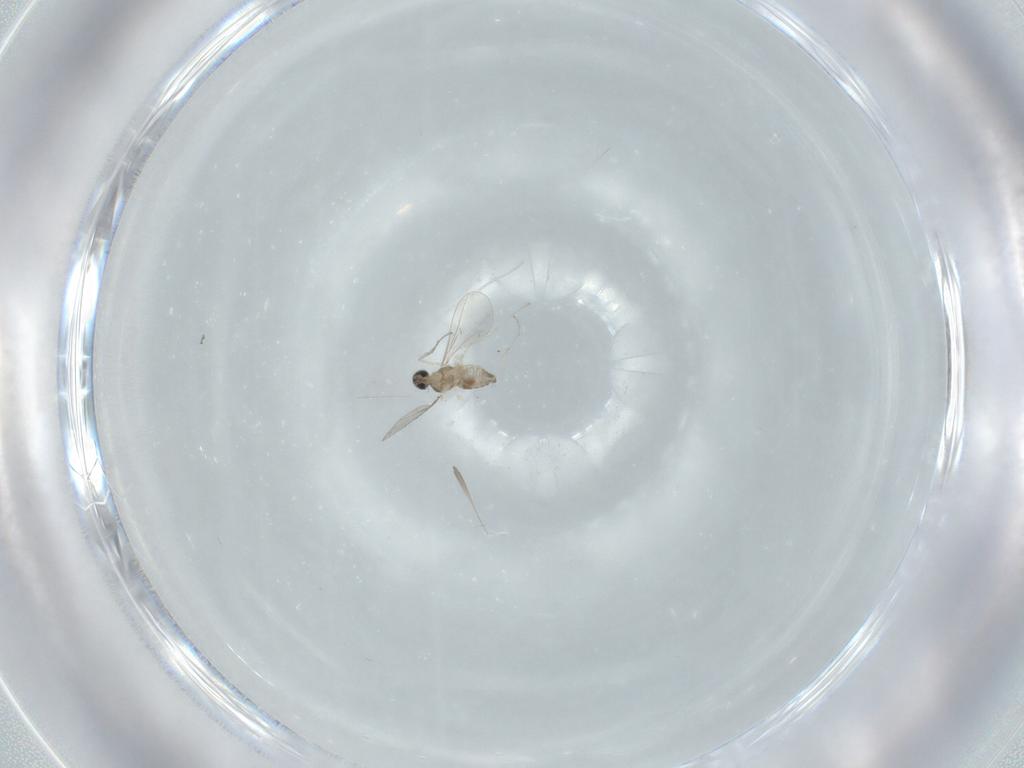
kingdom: Animalia
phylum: Arthropoda
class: Insecta
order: Diptera
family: Cecidomyiidae
